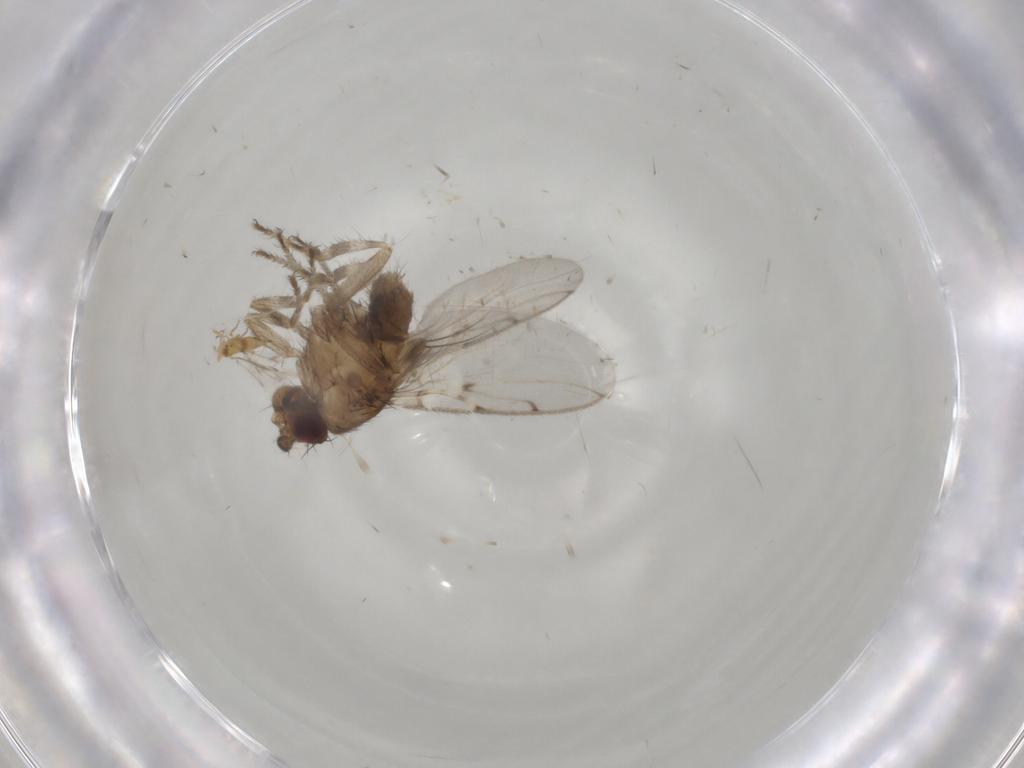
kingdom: Animalia
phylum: Arthropoda
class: Insecta
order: Diptera
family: Sphaeroceridae
